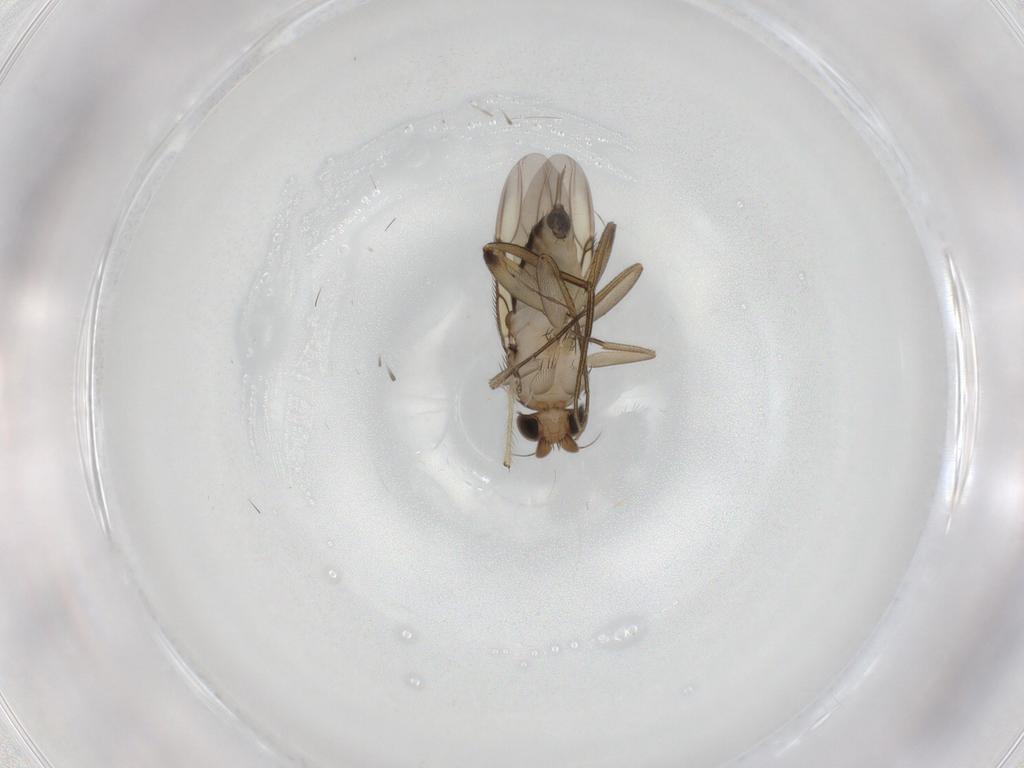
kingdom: Animalia
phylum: Arthropoda
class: Insecta
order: Diptera
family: Phoridae
